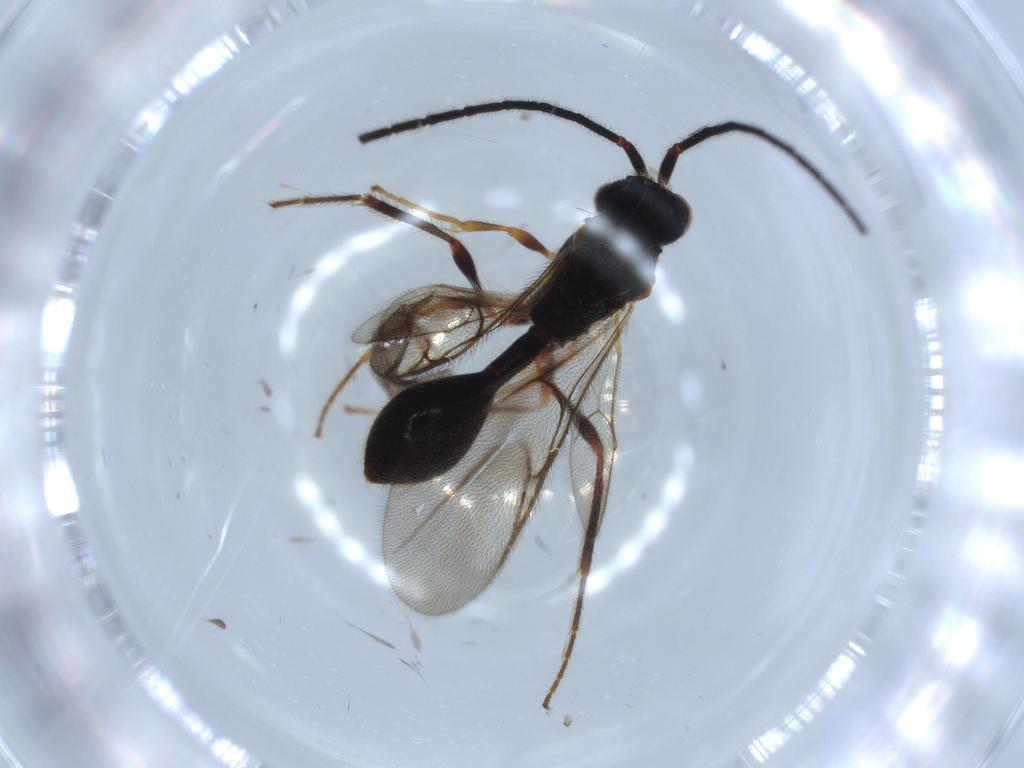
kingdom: Animalia
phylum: Arthropoda
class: Insecta
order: Hymenoptera
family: Diapriidae
